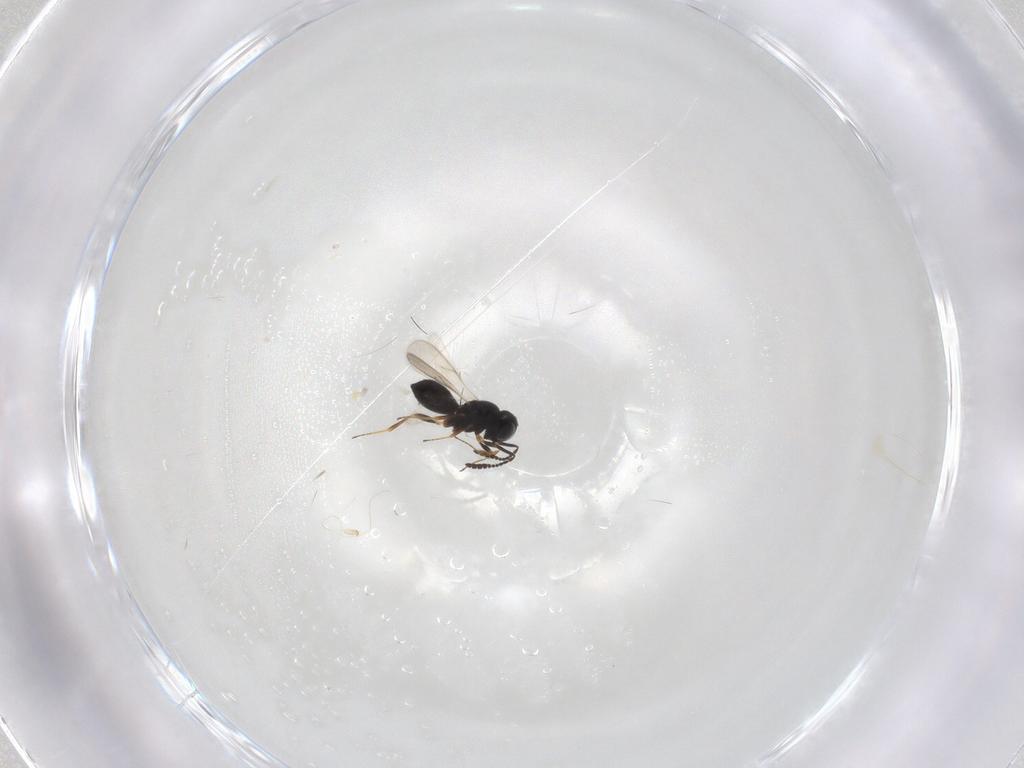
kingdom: Animalia
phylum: Arthropoda
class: Insecta
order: Hymenoptera
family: Scelionidae
